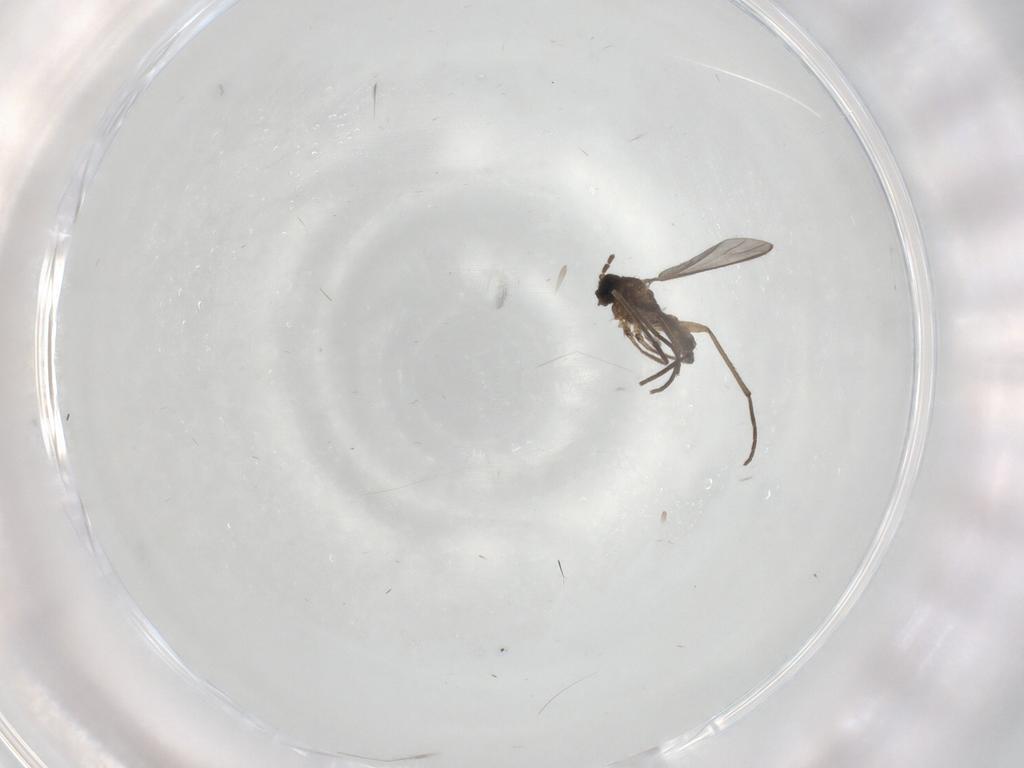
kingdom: Animalia
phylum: Arthropoda
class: Insecta
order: Diptera
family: Sciaridae
